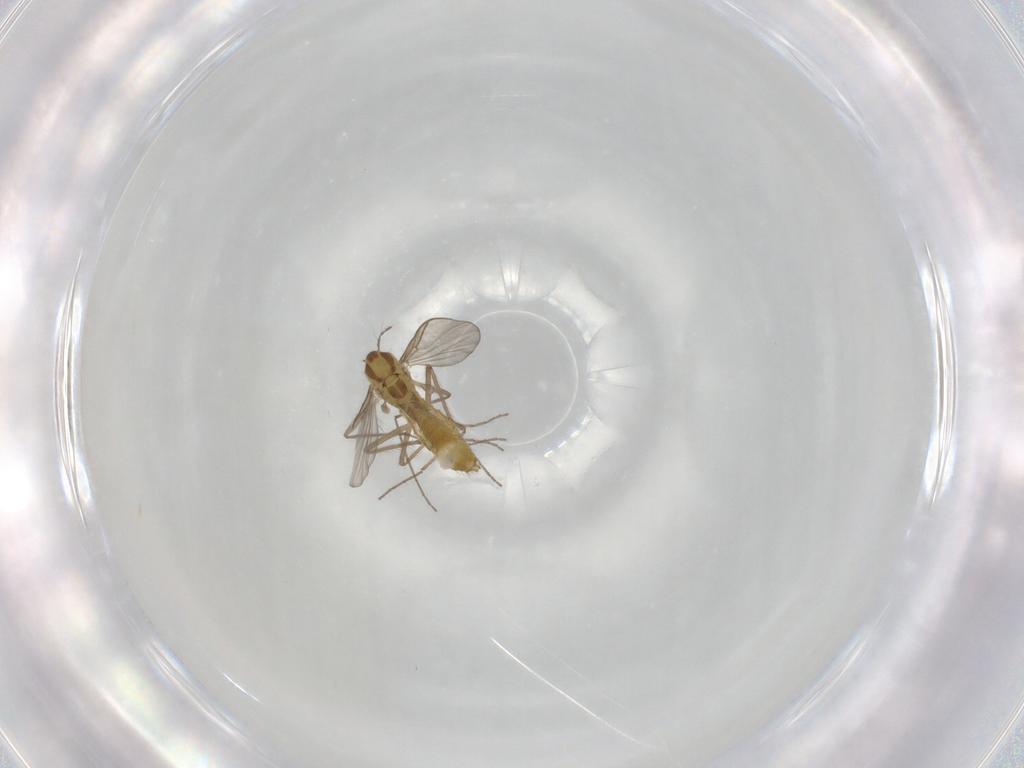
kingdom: Animalia
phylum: Arthropoda
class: Insecta
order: Diptera
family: Chironomidae
